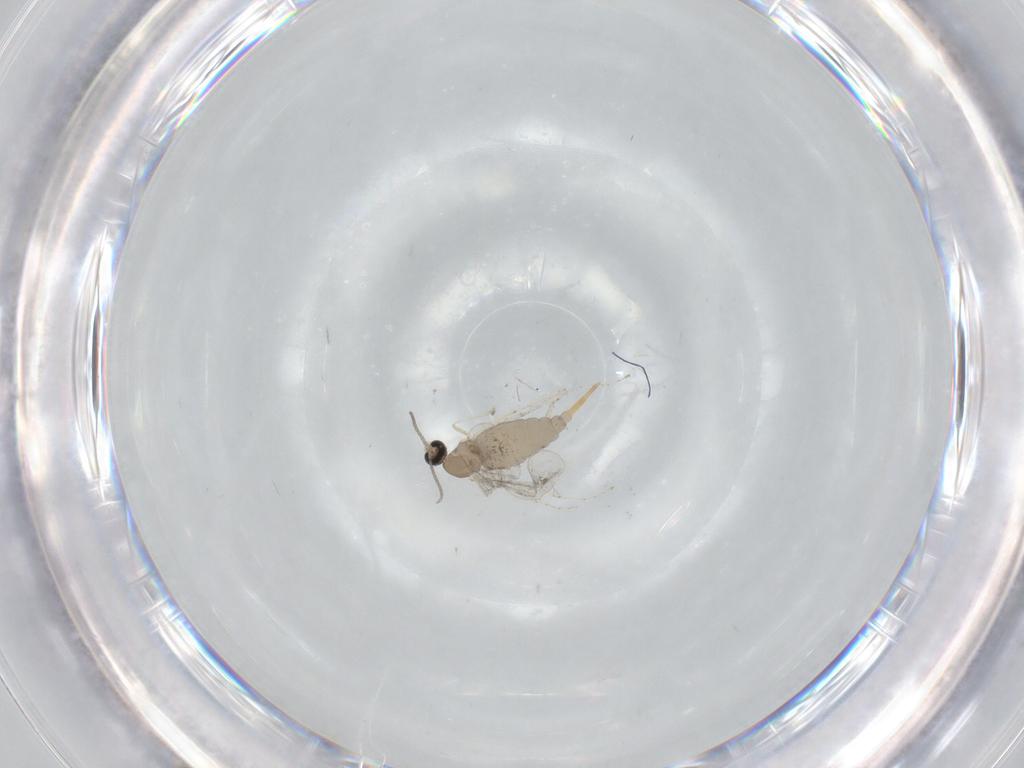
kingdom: Animalia
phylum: Arthropoda
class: Insecta
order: Diptera
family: Cecidomyiidae
